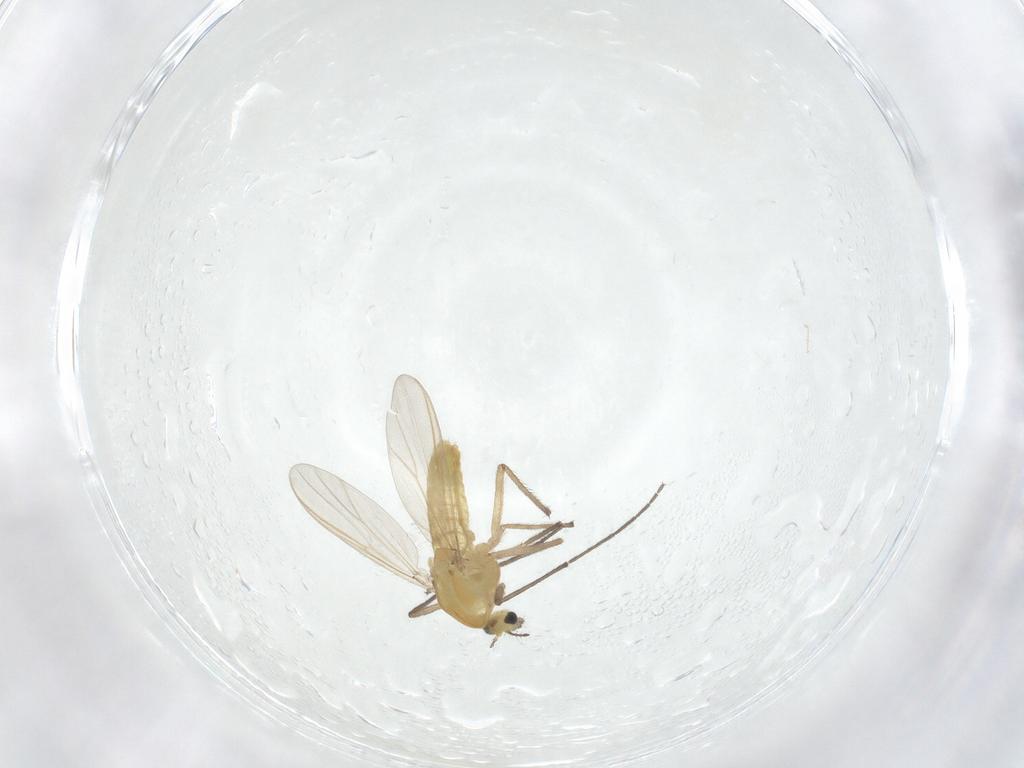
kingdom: Animalia
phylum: Arthropoda
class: Insecta
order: Diptera
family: Chironomidae
